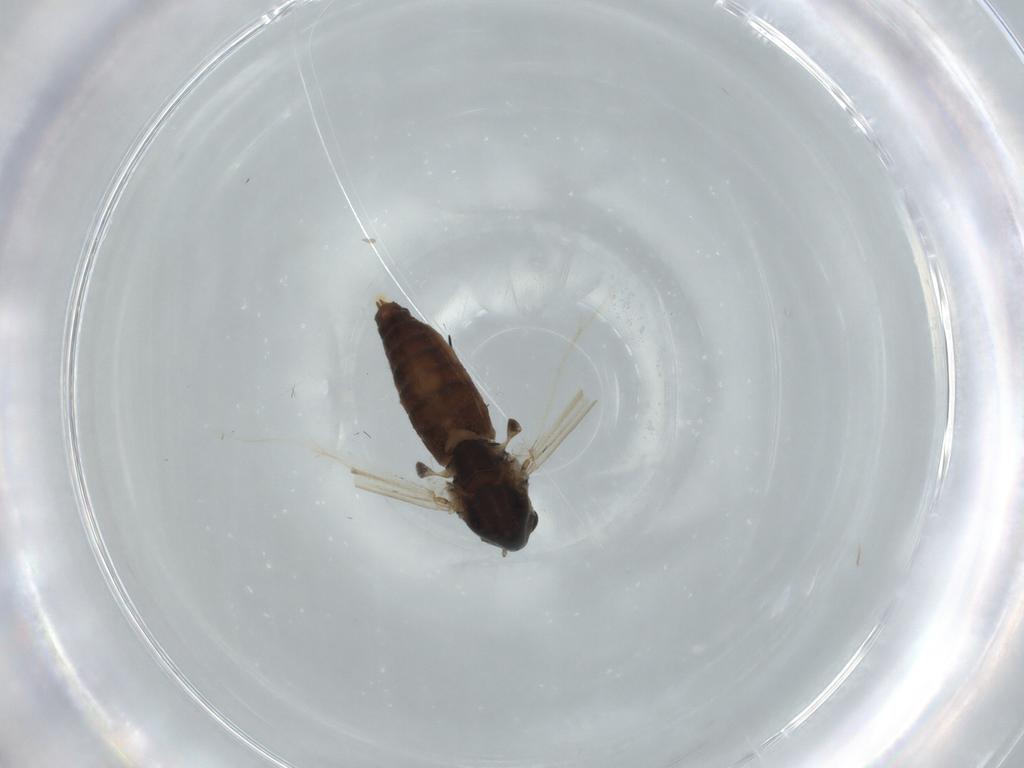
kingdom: Animalia
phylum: Arthropoda
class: Insecta
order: Diptera
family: Chironomidae
